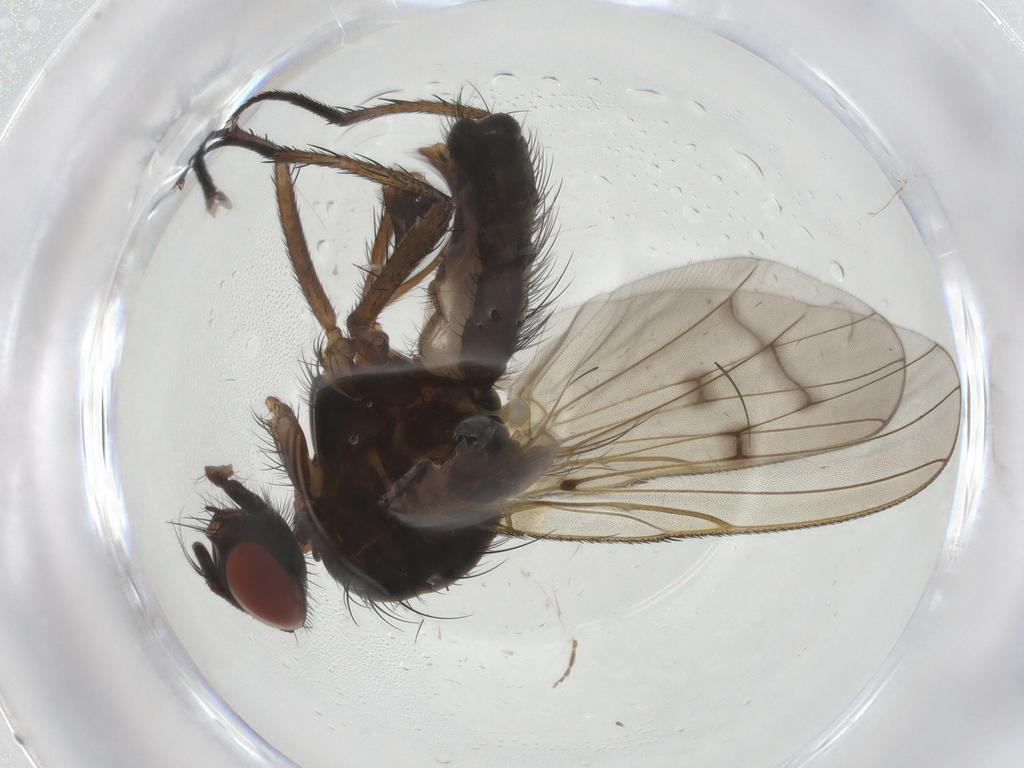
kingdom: Animalia
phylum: Arthropoda
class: Insecta
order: Diptera
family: Anthomyiidae
